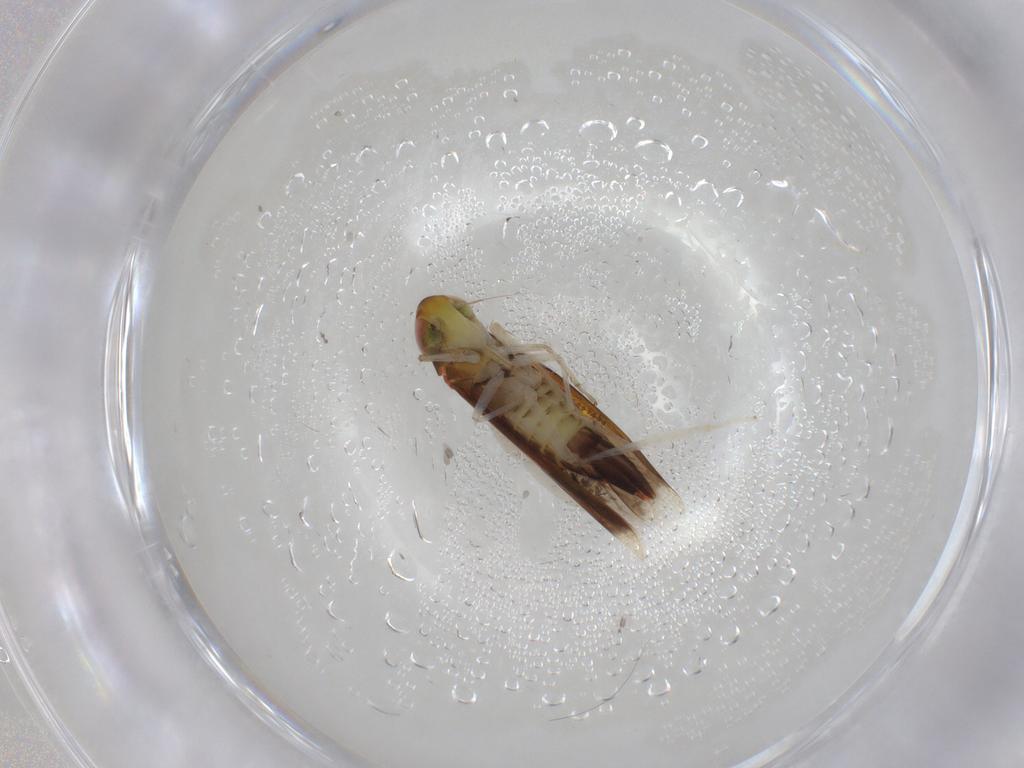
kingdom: Animalia
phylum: Arthropoda
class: Insecta
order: Hemiptera
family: Cicadellidae
